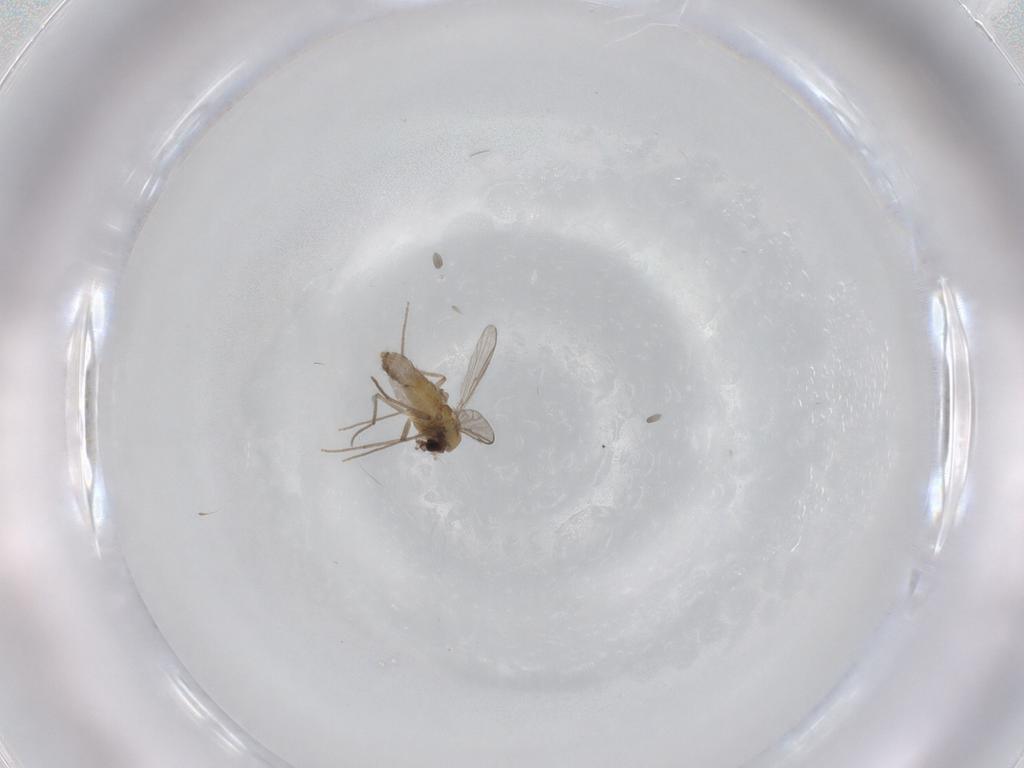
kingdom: Animalia
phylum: Arthropoda
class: Insecta
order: Diptera
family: Chironomidae
